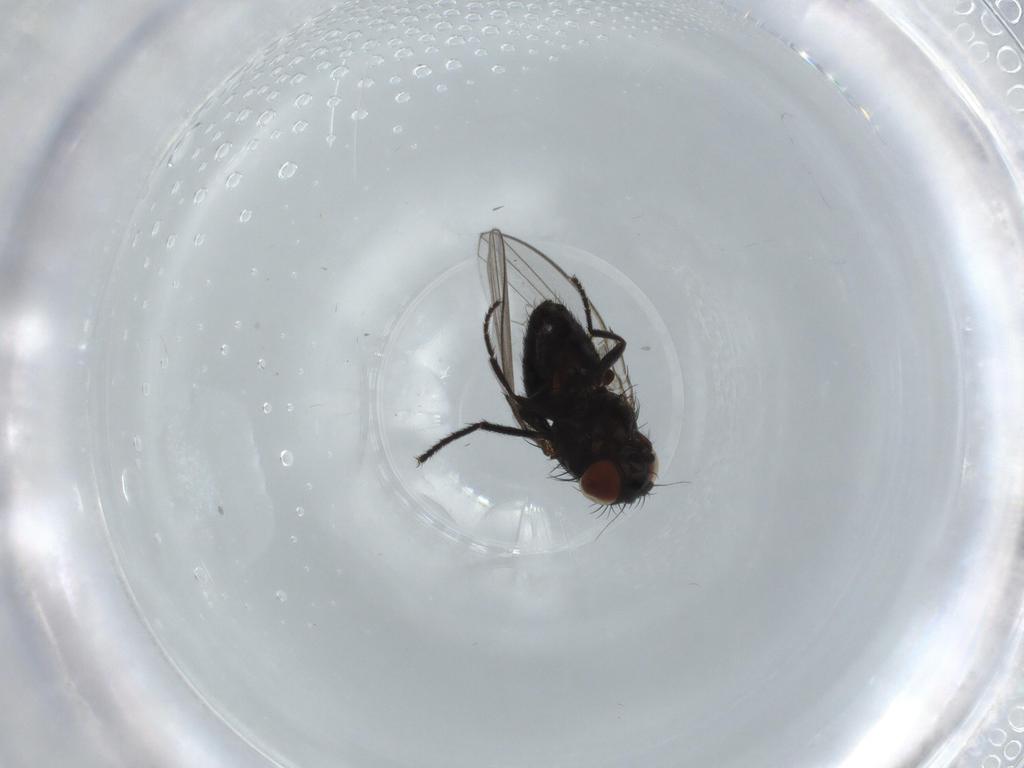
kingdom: Animalia
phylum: Arthropoda
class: Insecta
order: Diptera
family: Milichiidae
